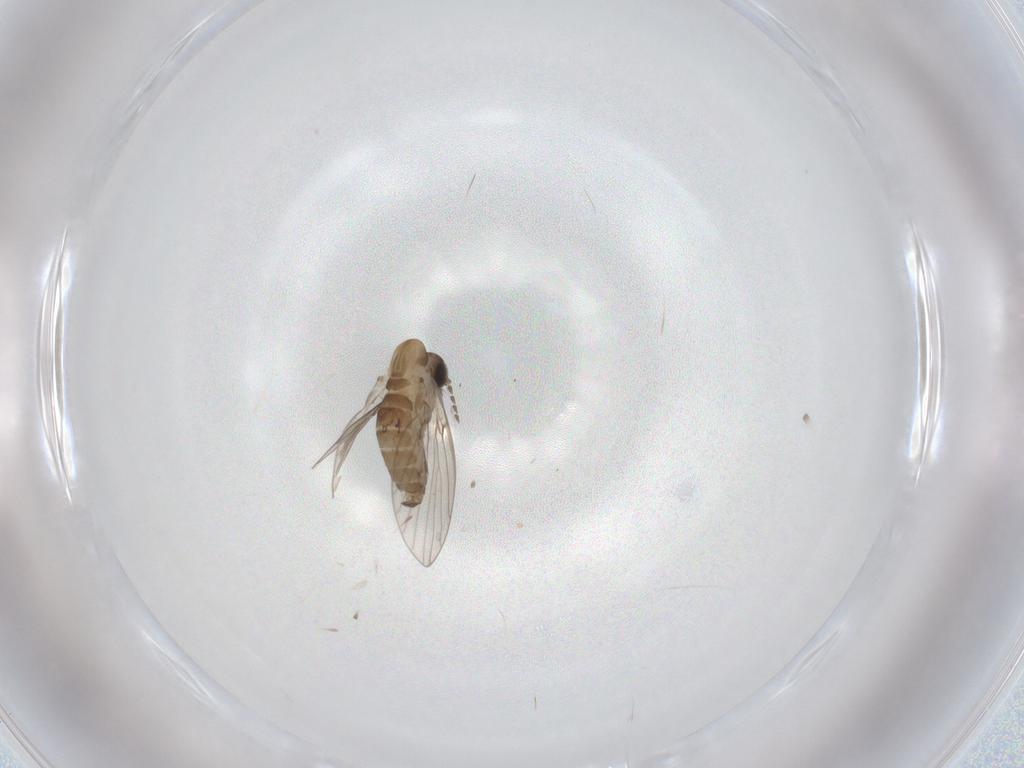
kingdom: Animalia
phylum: Arthropoda
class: Insecta
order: Diptera
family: Psychodidae
